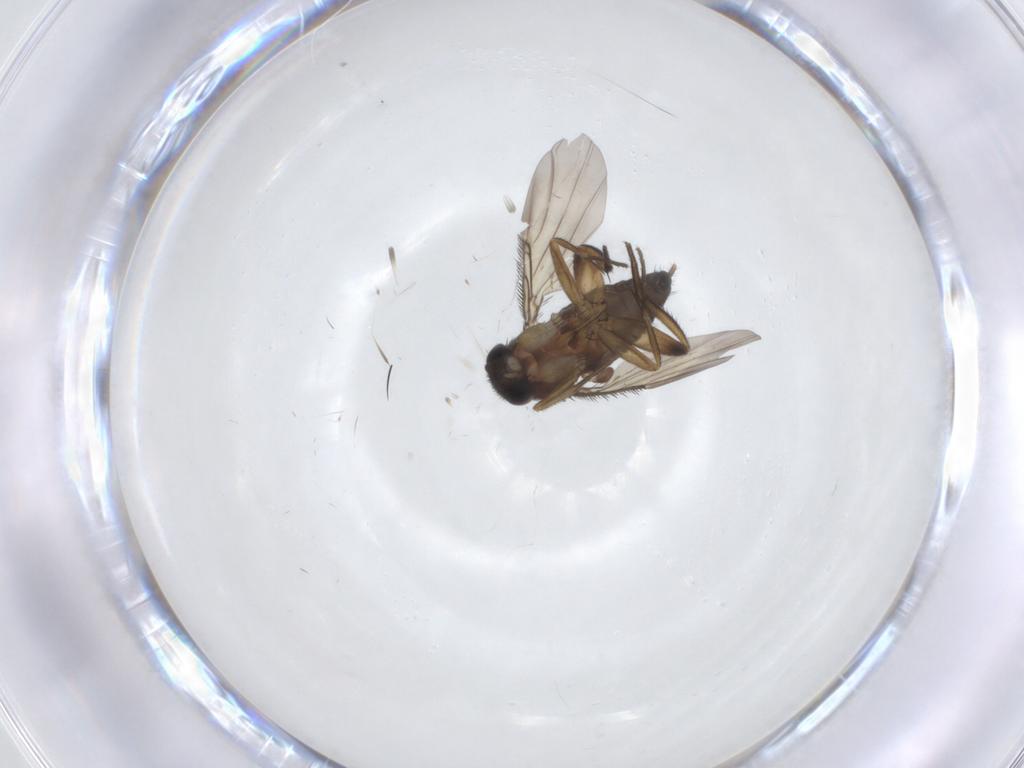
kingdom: Animalia
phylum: Arthropoda
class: Insecta
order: Diptera
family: Phoridae
